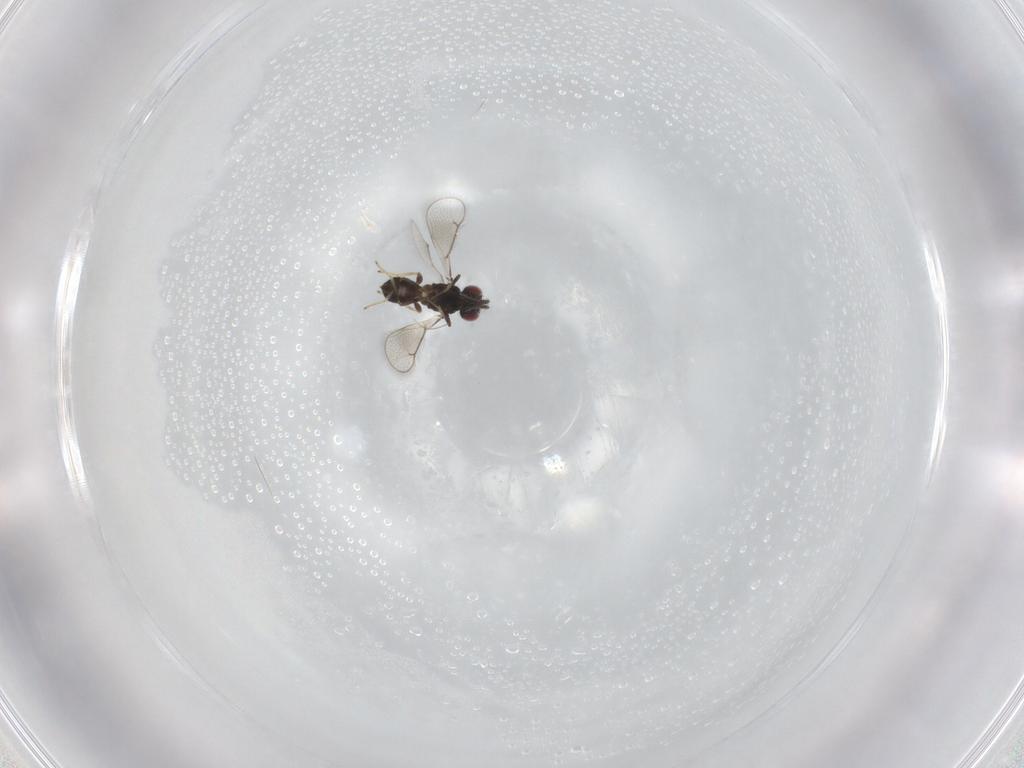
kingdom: Animalia
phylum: Arthropoda
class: Insecta
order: Hymenoptera
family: Eulophidae
